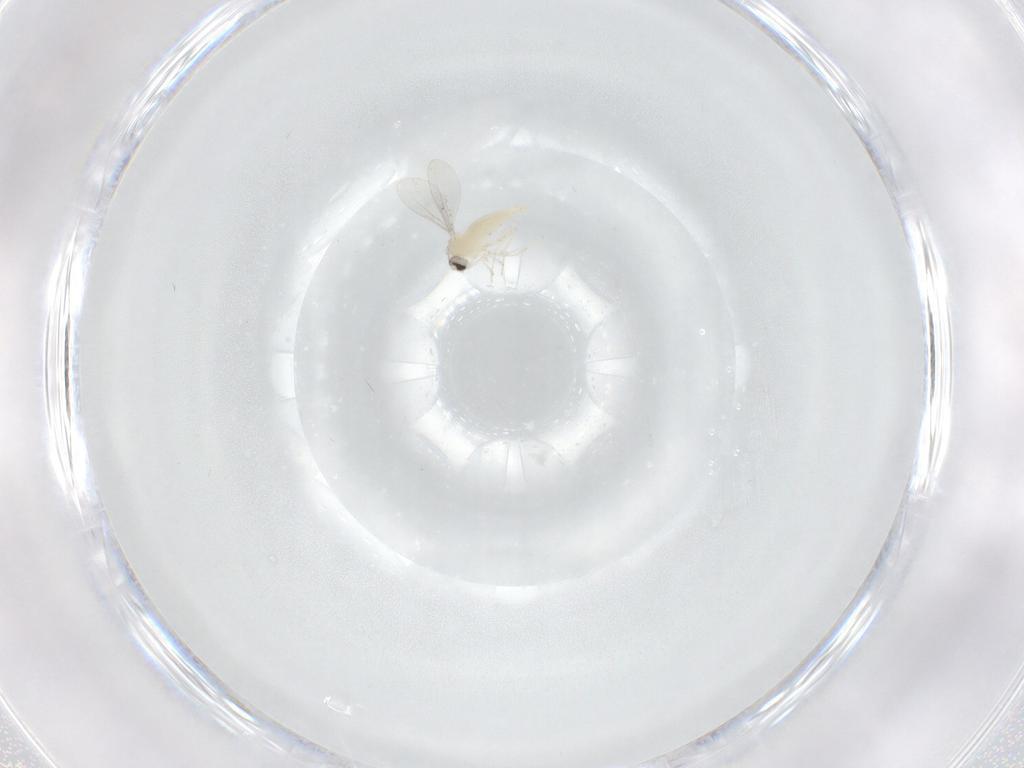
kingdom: Animalia
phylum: Arthropoda
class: Insecta
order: Diptera
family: Cecidomyiidae
